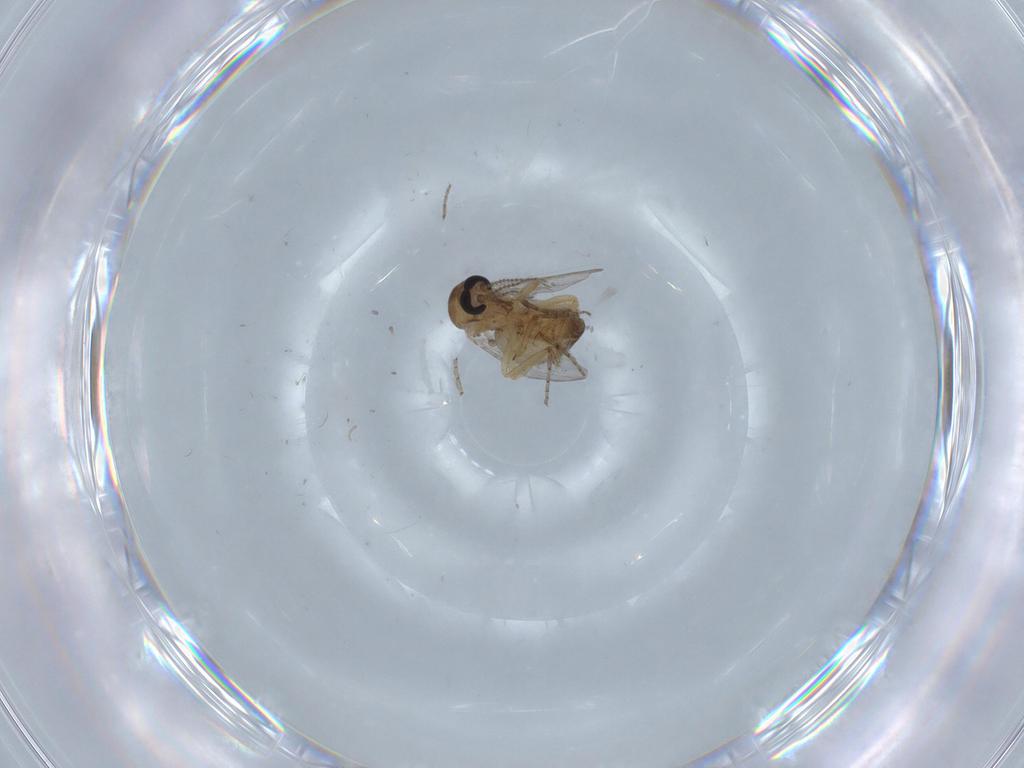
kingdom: Animalia
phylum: Arthropoda
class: Insecta
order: Diptera
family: Ceratopogonidae
